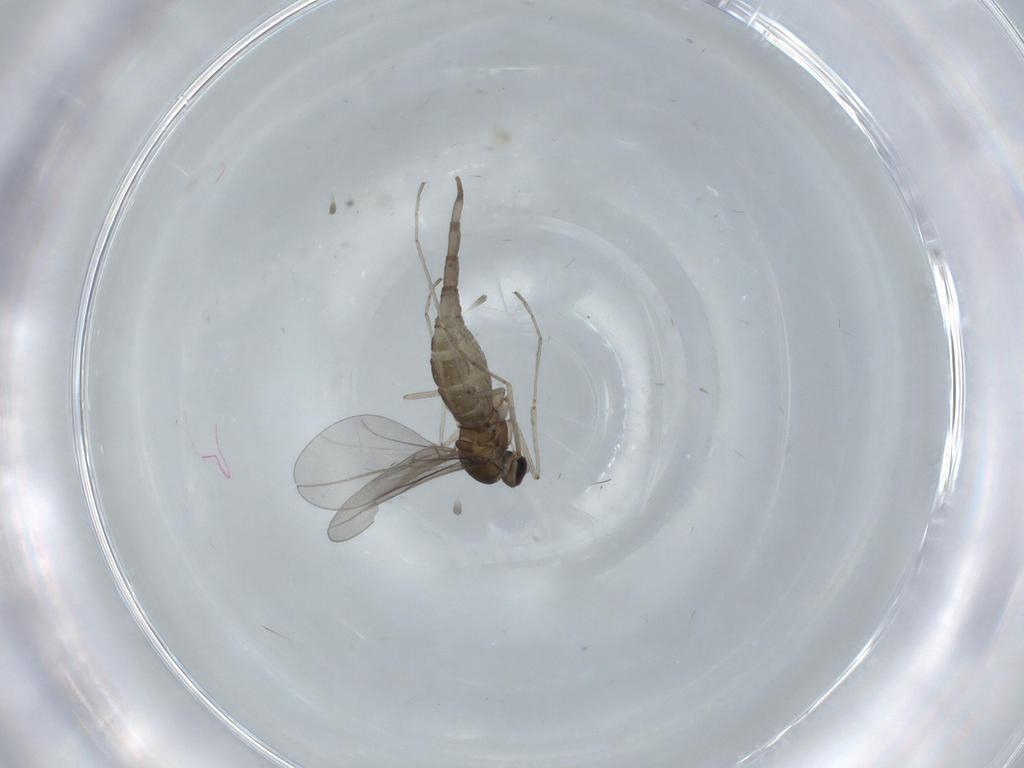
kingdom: Animalia
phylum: Arthropoda
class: Insecta
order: Diptera
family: Cecidomyiidae
